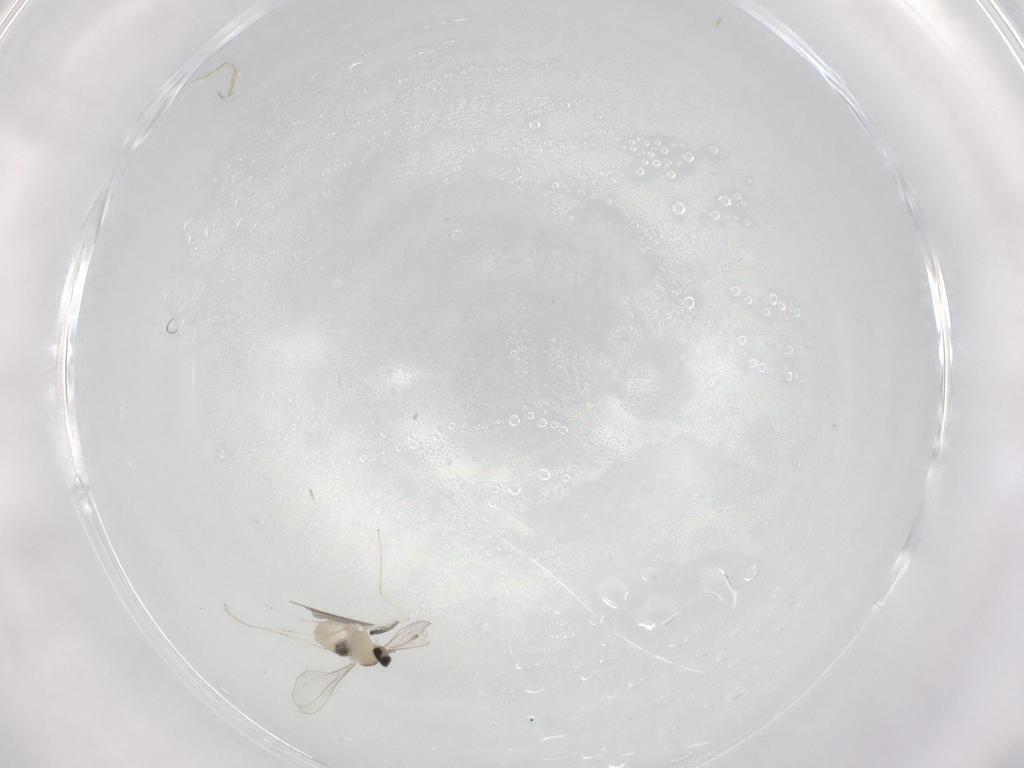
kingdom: Animalia
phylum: Arthropoda
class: Insecta
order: Diptera
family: Cecidomyiidae
